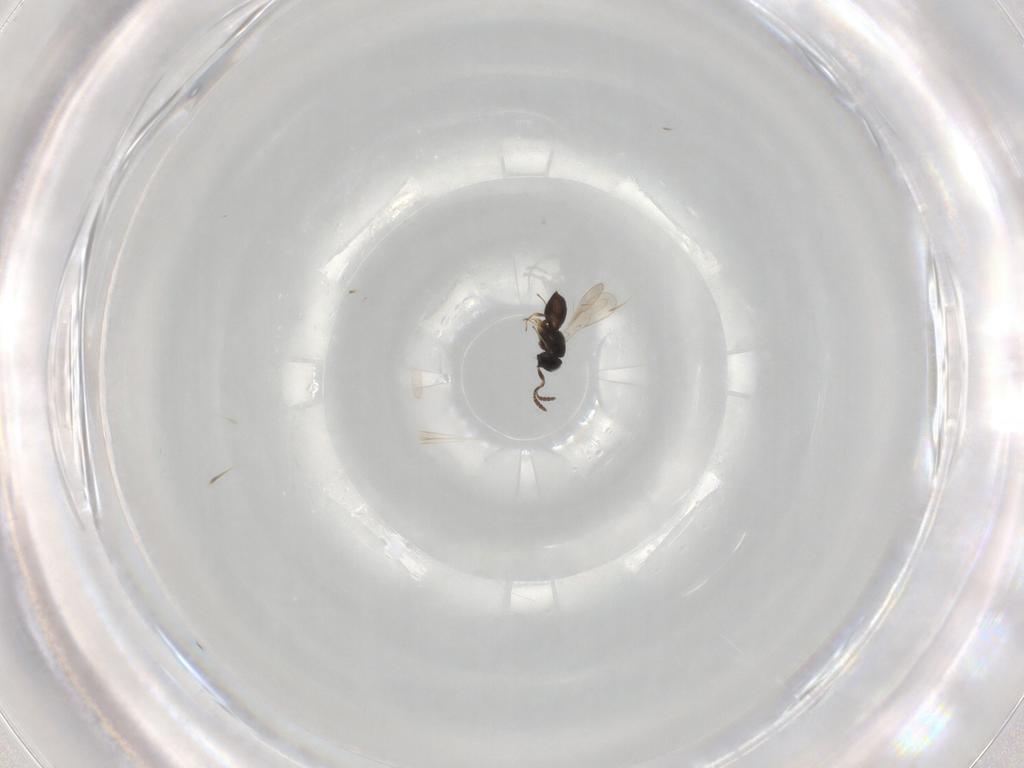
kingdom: Animalia
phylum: Arthropoda
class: Insecta
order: Hymenoptera
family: Scelionidae
